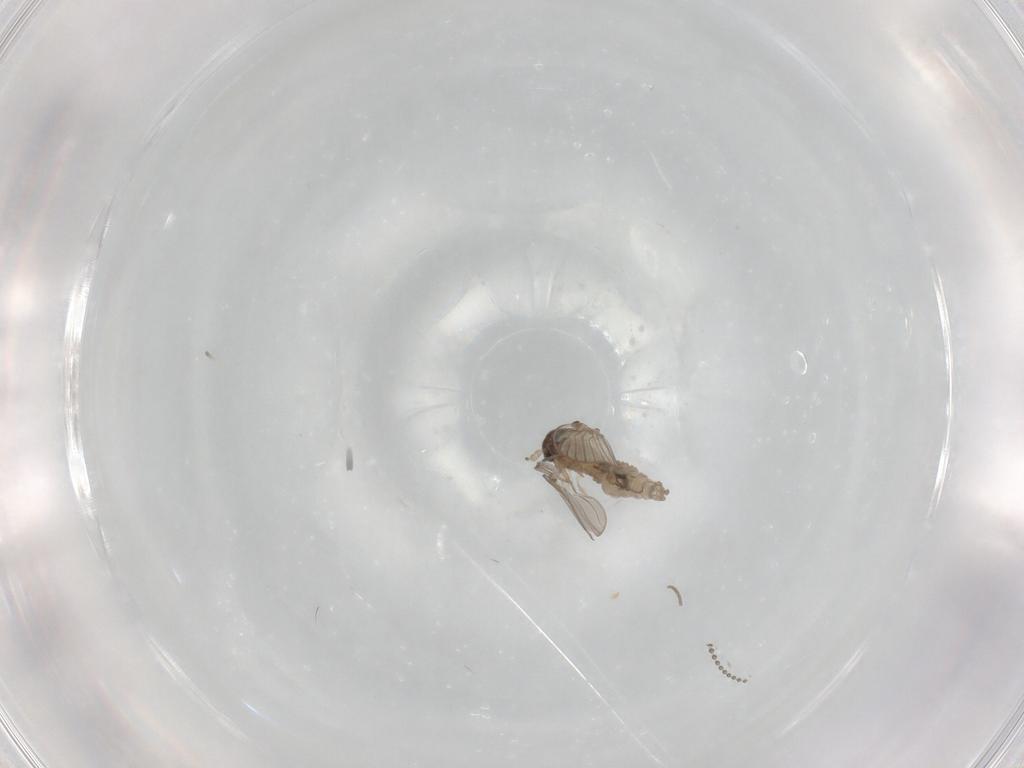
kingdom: Animalia
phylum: Arthropoda
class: Insecta
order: Diptera
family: Psychodidae
